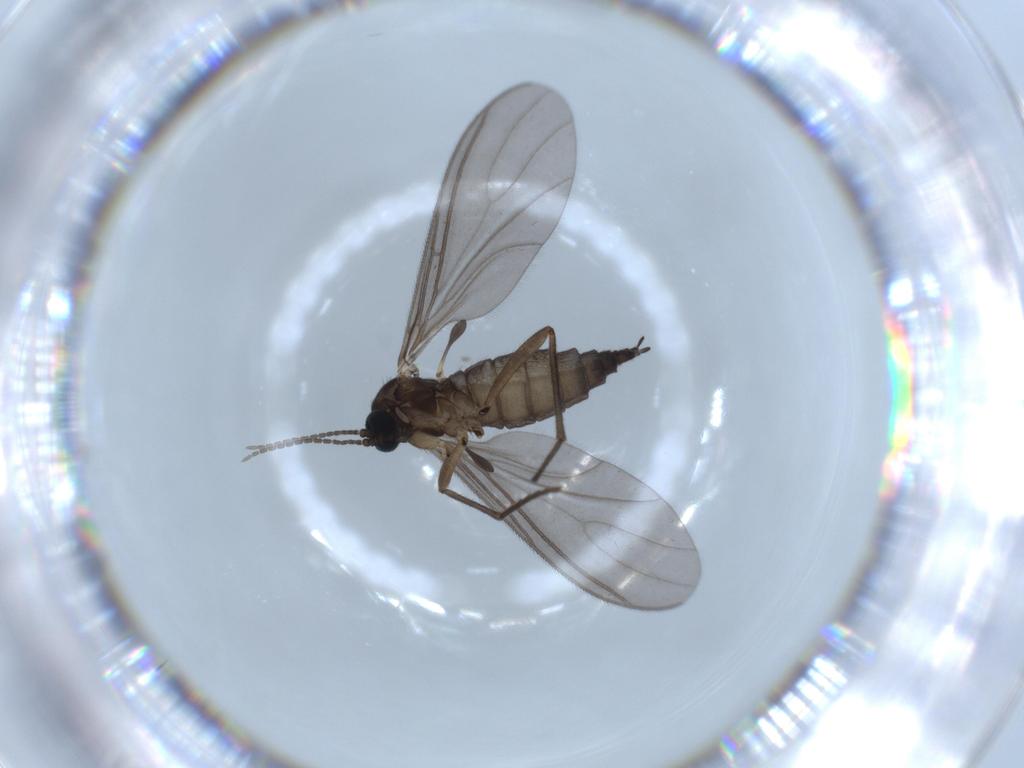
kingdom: Animalia
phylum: Arthropoda
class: Insecta
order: Diptera
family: Sciaridae
